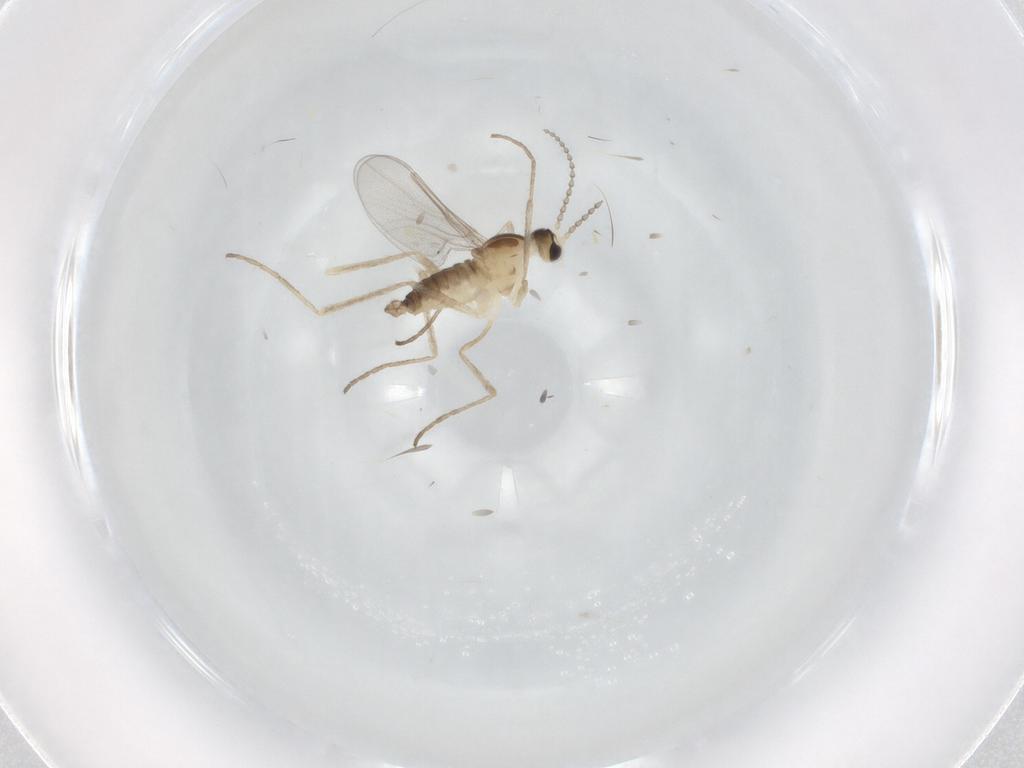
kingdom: Animalia
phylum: Arthropoda
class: Insecta
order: Diptera
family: Cecidomyiidae
